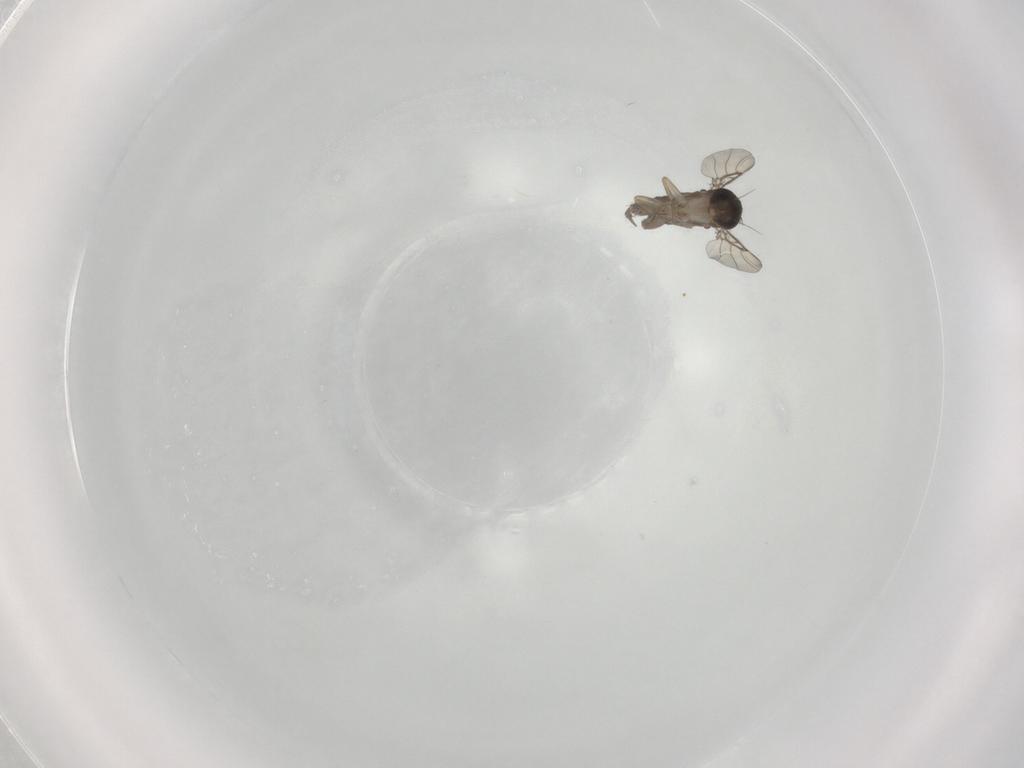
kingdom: Animalia
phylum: Arthropoda
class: Insecta
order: Diptera
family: Phoridae
